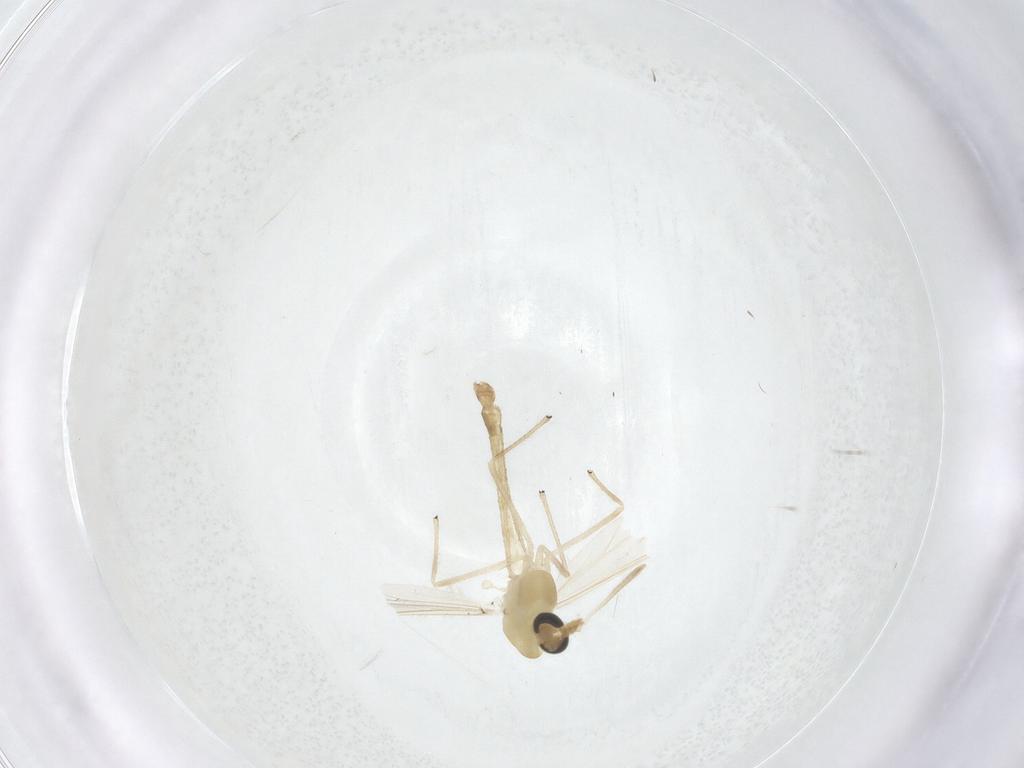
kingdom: Animalia
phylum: Arthropoda
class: Insecta
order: Diptera
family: Chironomidae
